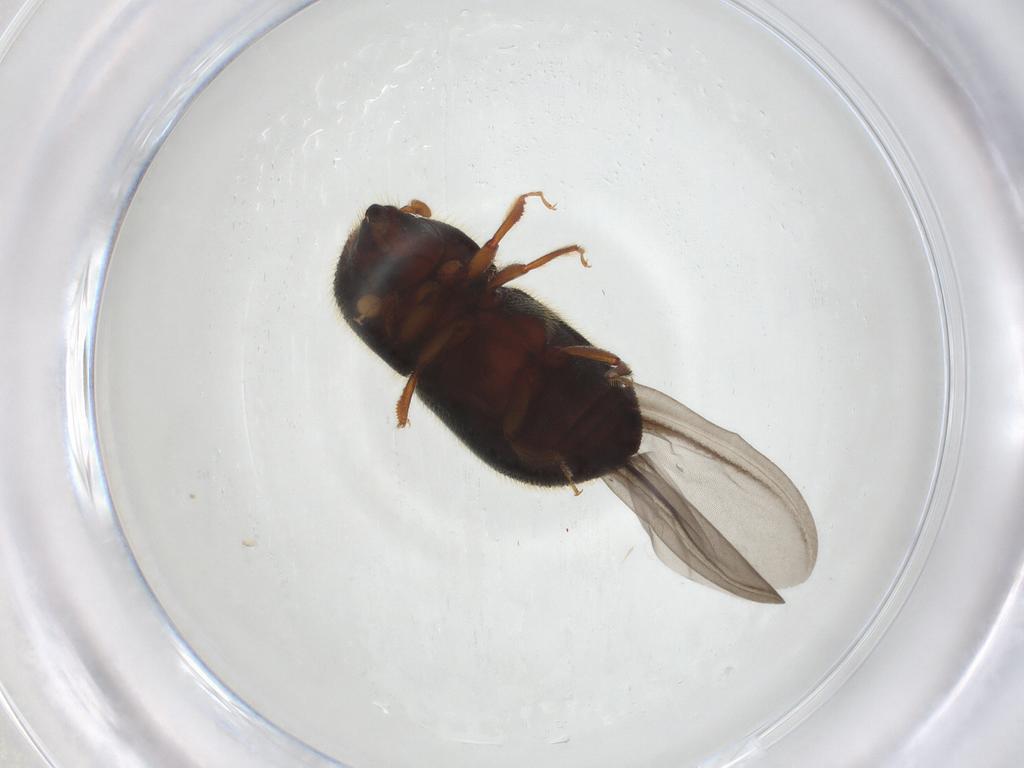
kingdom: Animalia
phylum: Arthropoda
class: Insecta
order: Coleoptera
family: Curculionidae
